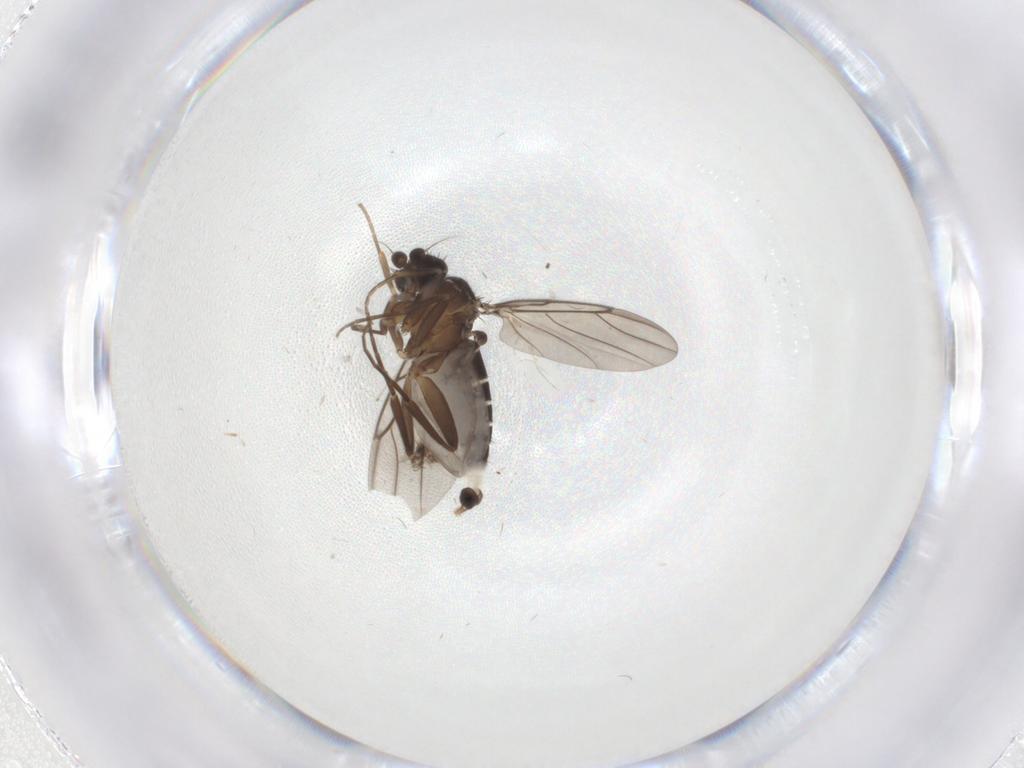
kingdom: Animalia
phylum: Arthropoda
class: Insecta
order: Diptera
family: Phoridae
